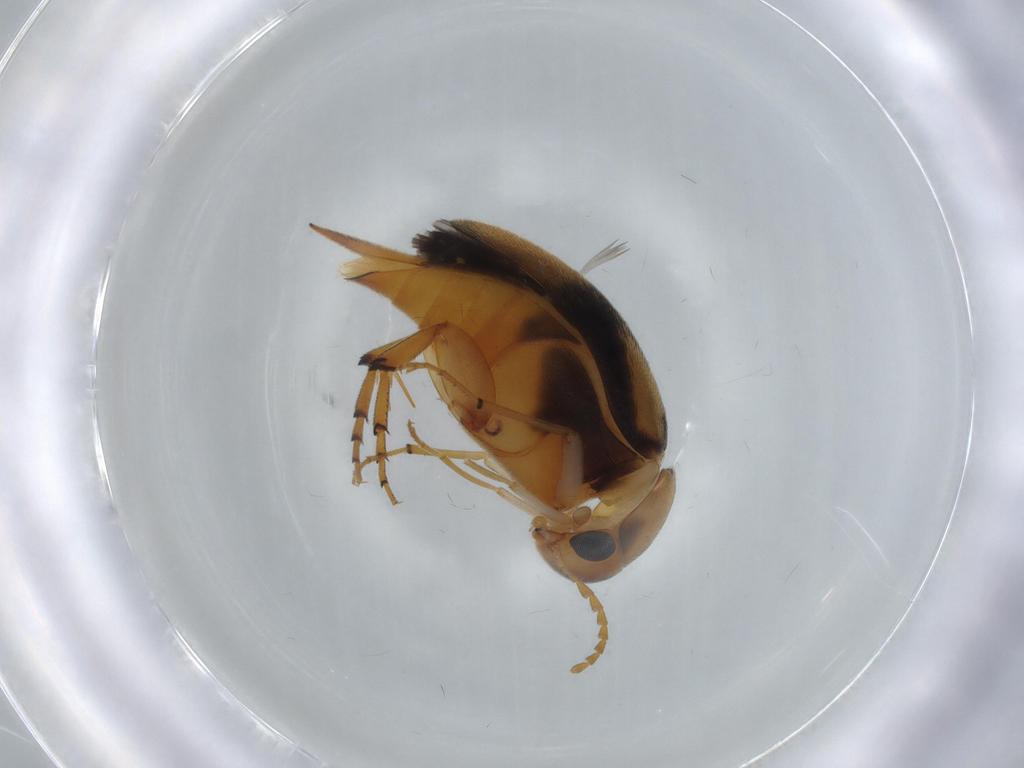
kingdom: Animalia
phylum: Arthropoda
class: Insecta
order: Coleoptera
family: Mordellidae
